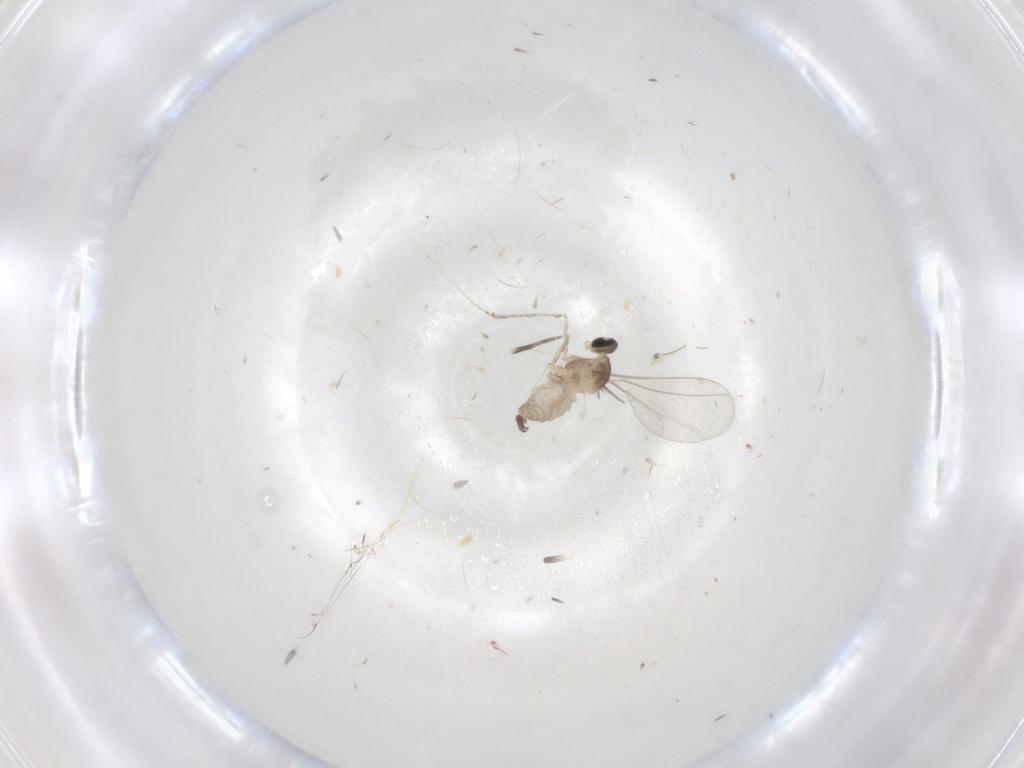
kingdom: Animalia
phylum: Arthropoda
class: Insecta
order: Diptera
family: Cecidomyiidae
